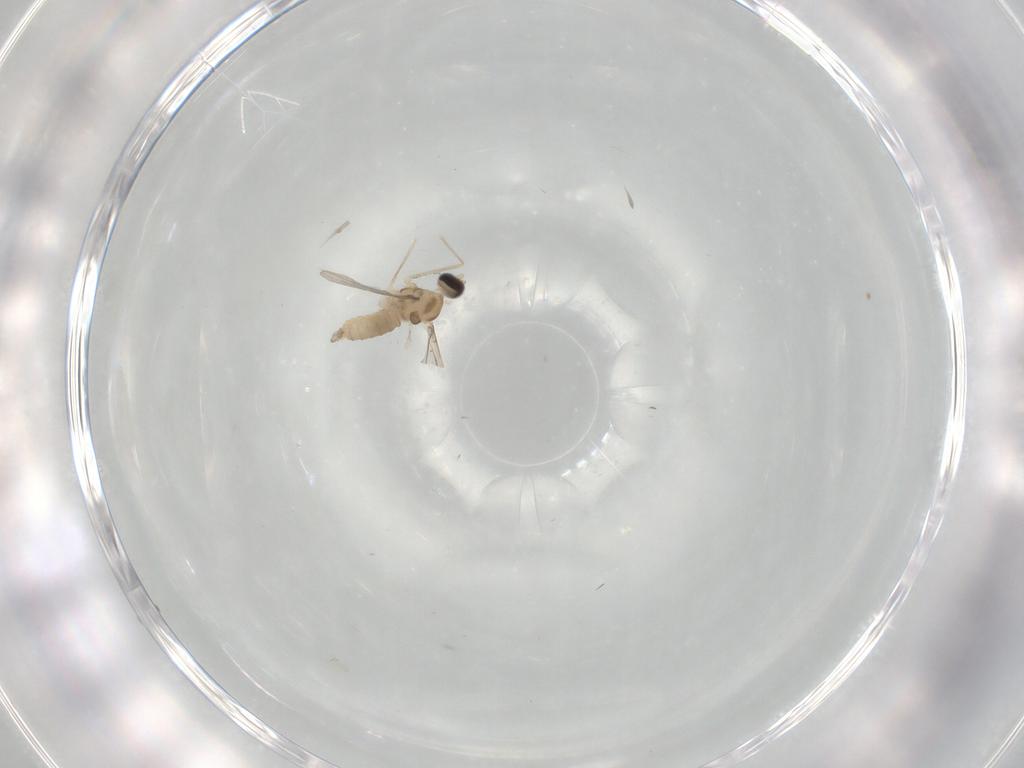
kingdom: Animalia
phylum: Arthropoda
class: Insecta
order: Diptera
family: Cecidomyiidae
